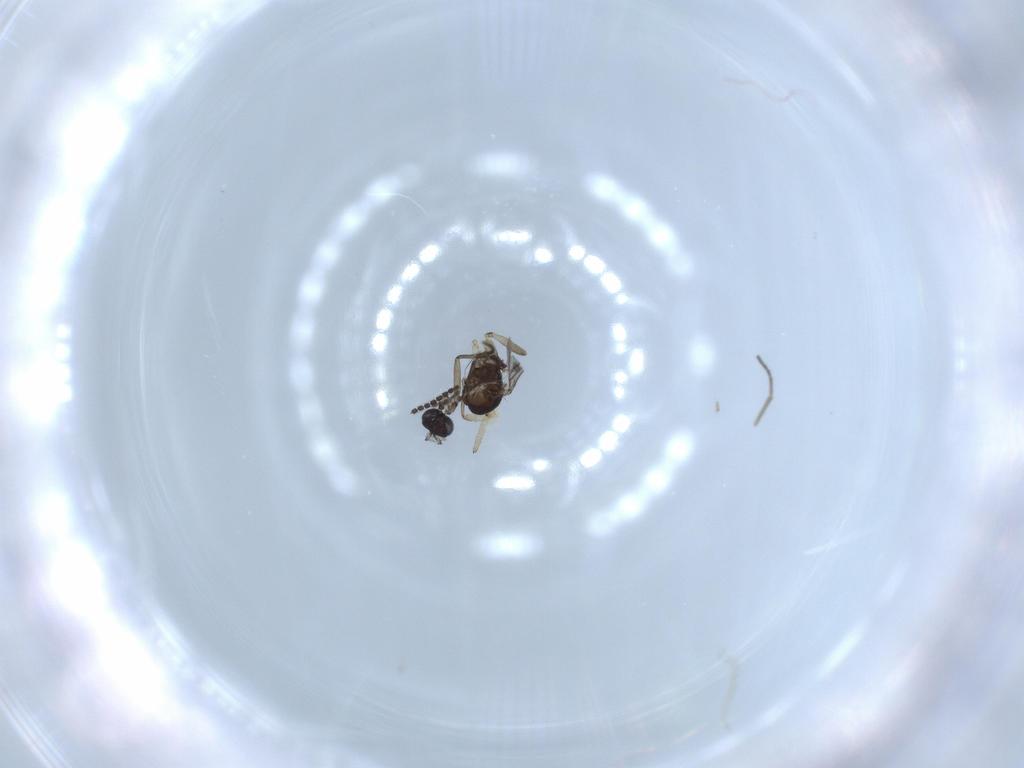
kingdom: Animalia
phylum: Arthropoda
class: Insecta
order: Diptera
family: Sciaridae
